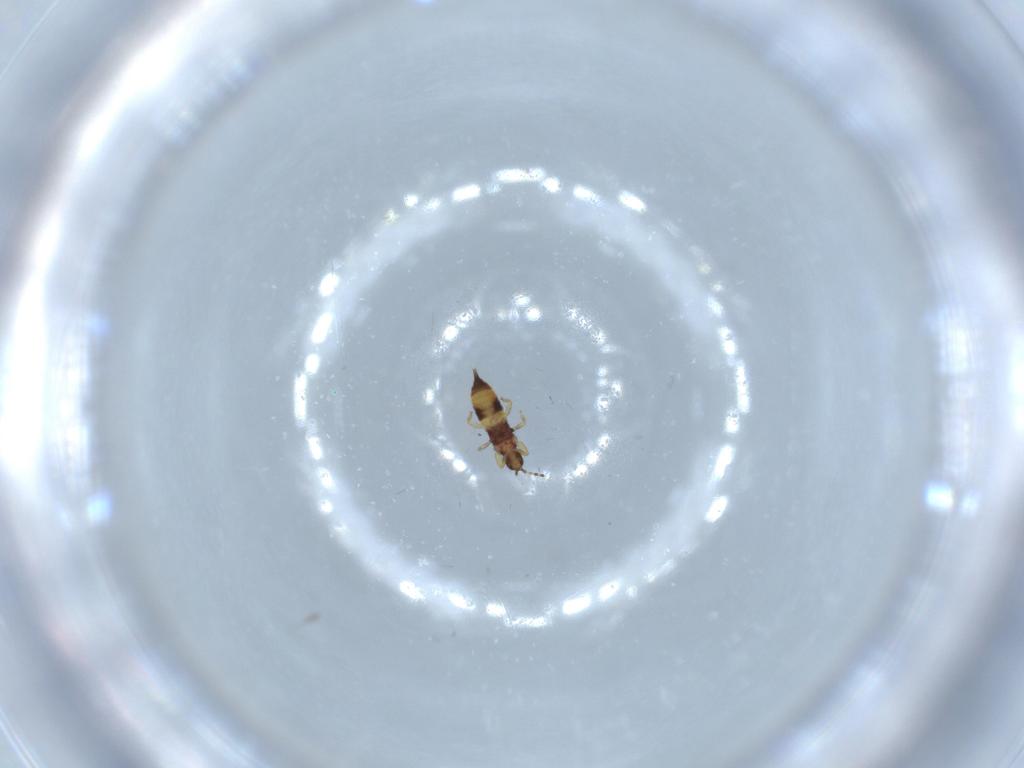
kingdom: Animalia
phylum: Arthropoda
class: Insecta
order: Thysanoptera
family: Phlaeothripidae
